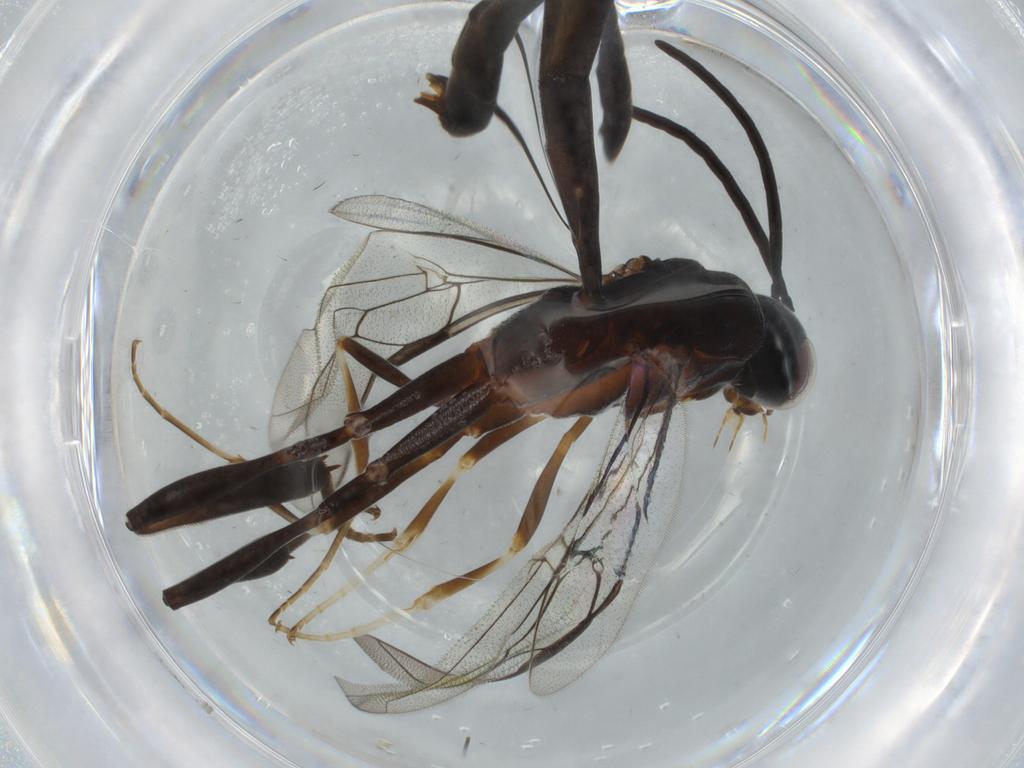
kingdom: Animalia
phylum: Arthropoda
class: Insecta
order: Hymenoptera
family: Gasteruptiidae
